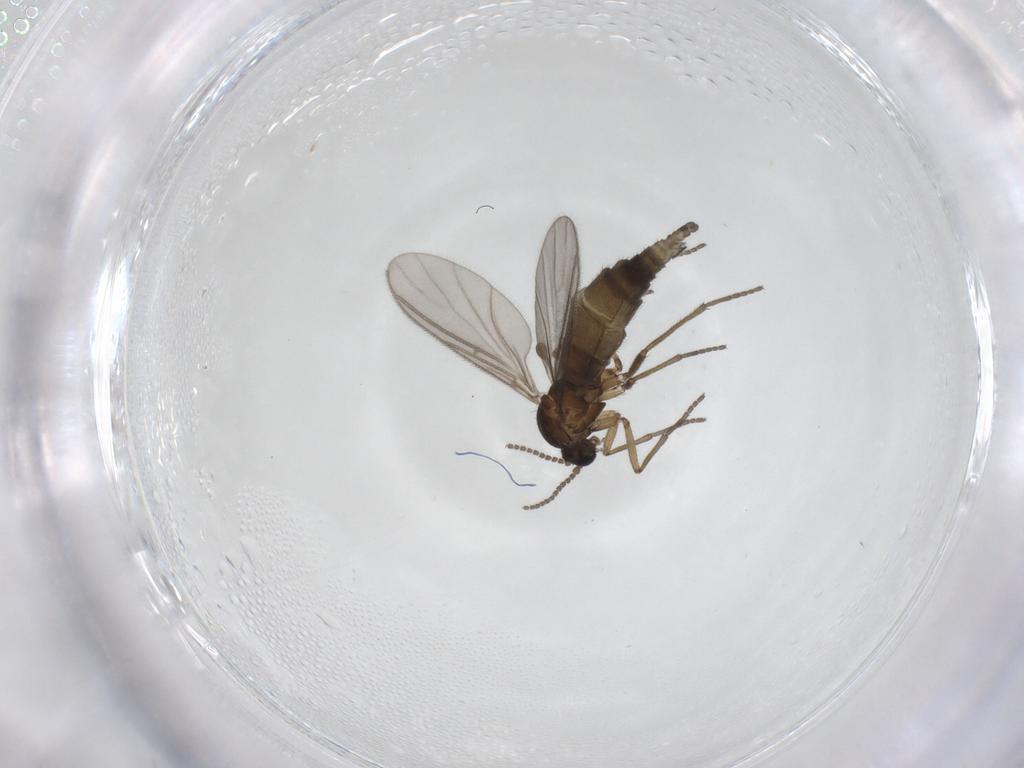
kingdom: Animalia
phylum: Arthropoda
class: Insecta
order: Diptera
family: Sciaridae
